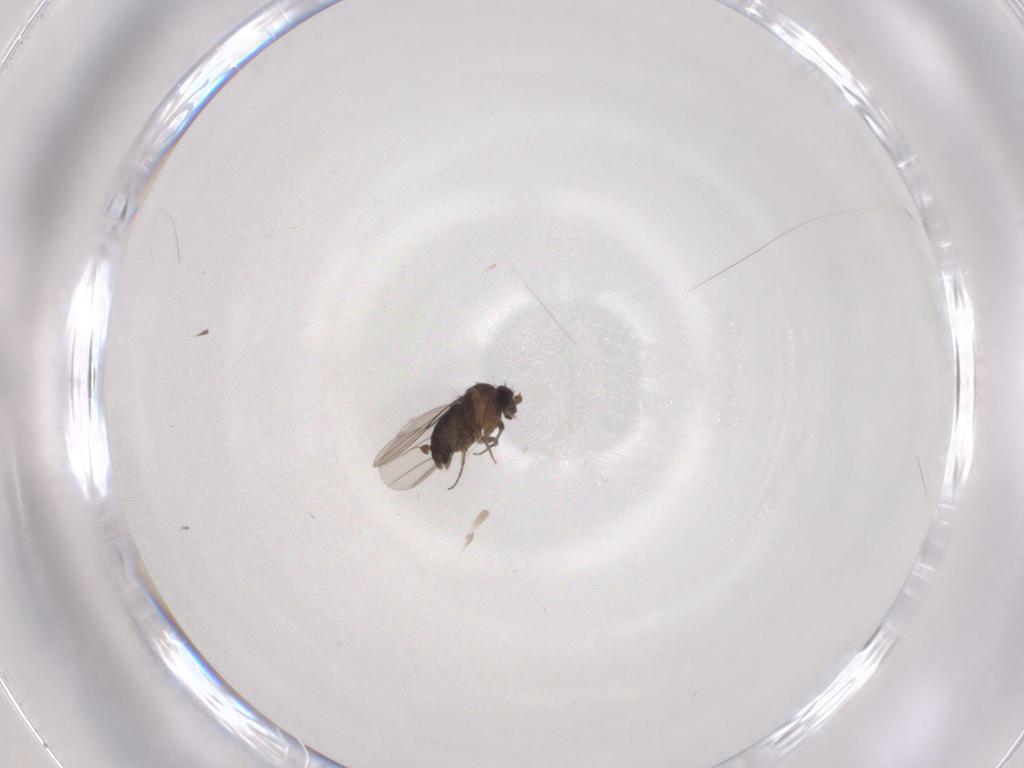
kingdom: Animalia
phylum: Arthropoda
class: Insecta
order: Diptera
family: Phoridae
